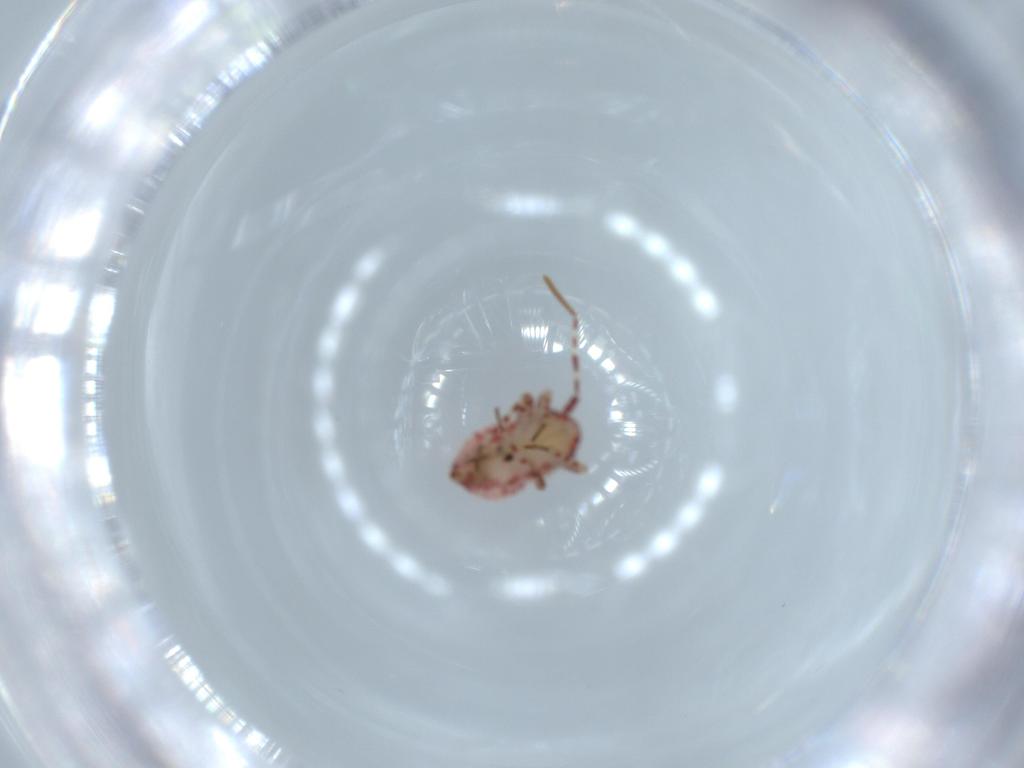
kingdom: Animalia
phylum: Arthropoda
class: Insecta
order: Hemiptera
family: Miridae
